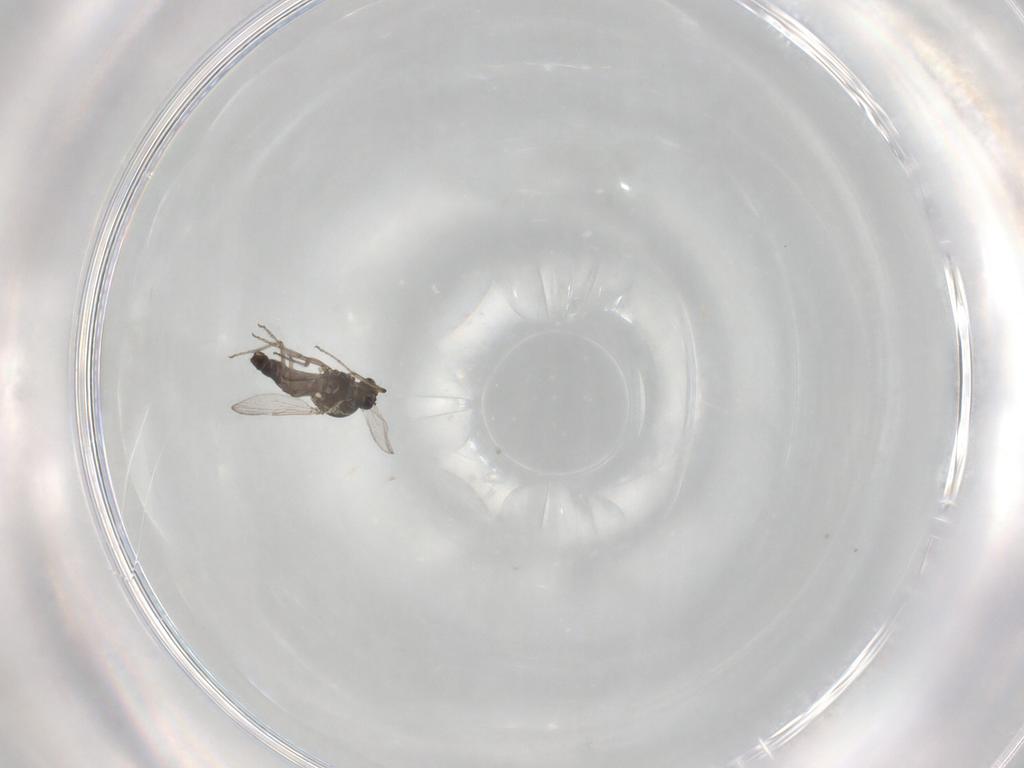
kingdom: Animalia
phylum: Arthropoda
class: Insecta
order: Diptera
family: Ceratopogonidae
